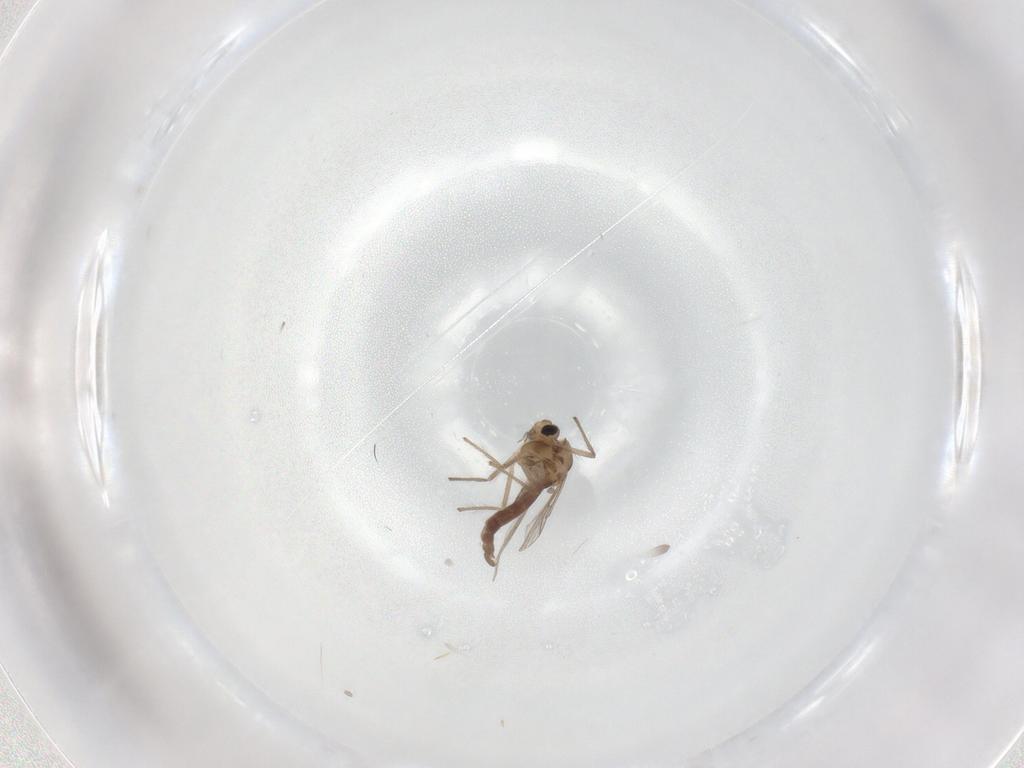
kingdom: Animalia
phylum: Arthropoda
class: Insecta
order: Diptera
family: Chironomidae
